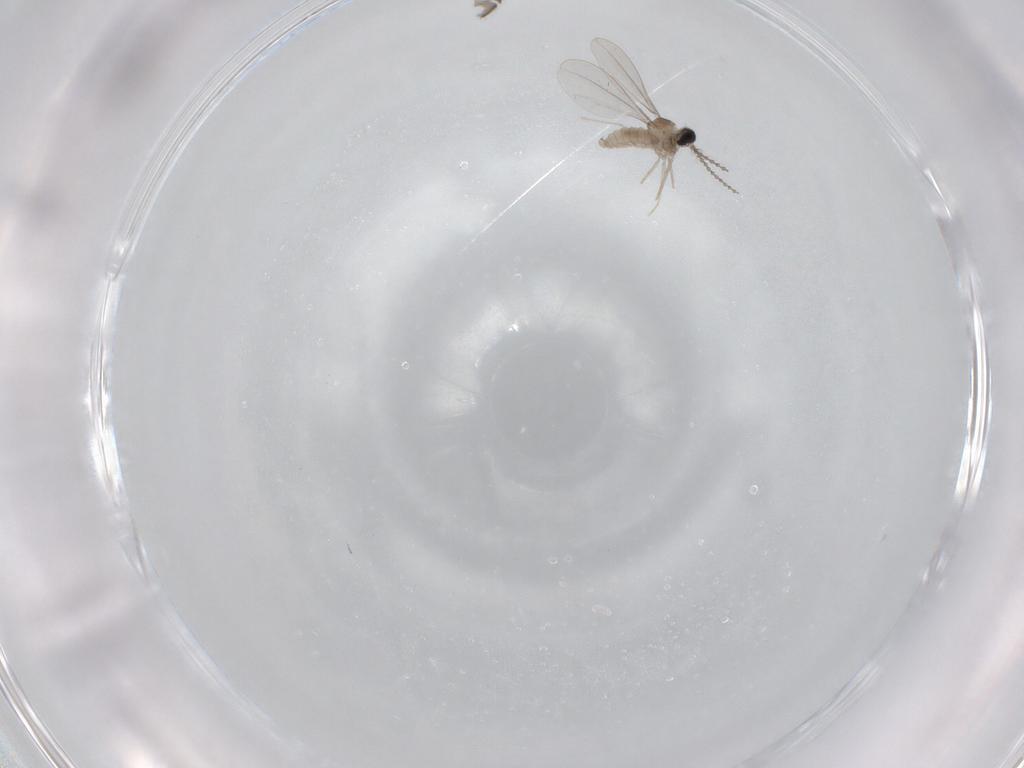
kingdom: Animalia
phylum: Arthropoda
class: Insecta
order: Diptera
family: Cecidomyiidae
